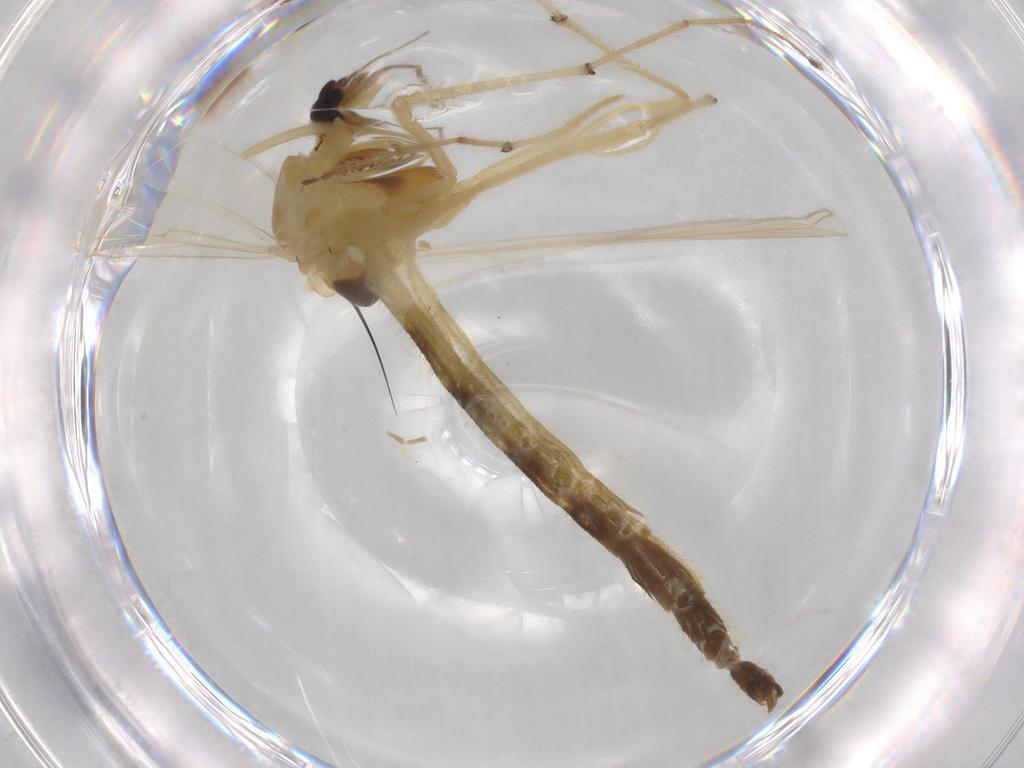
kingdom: Animalia
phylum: Arthropoda
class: Insecta
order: Diptera
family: Chironomidae
